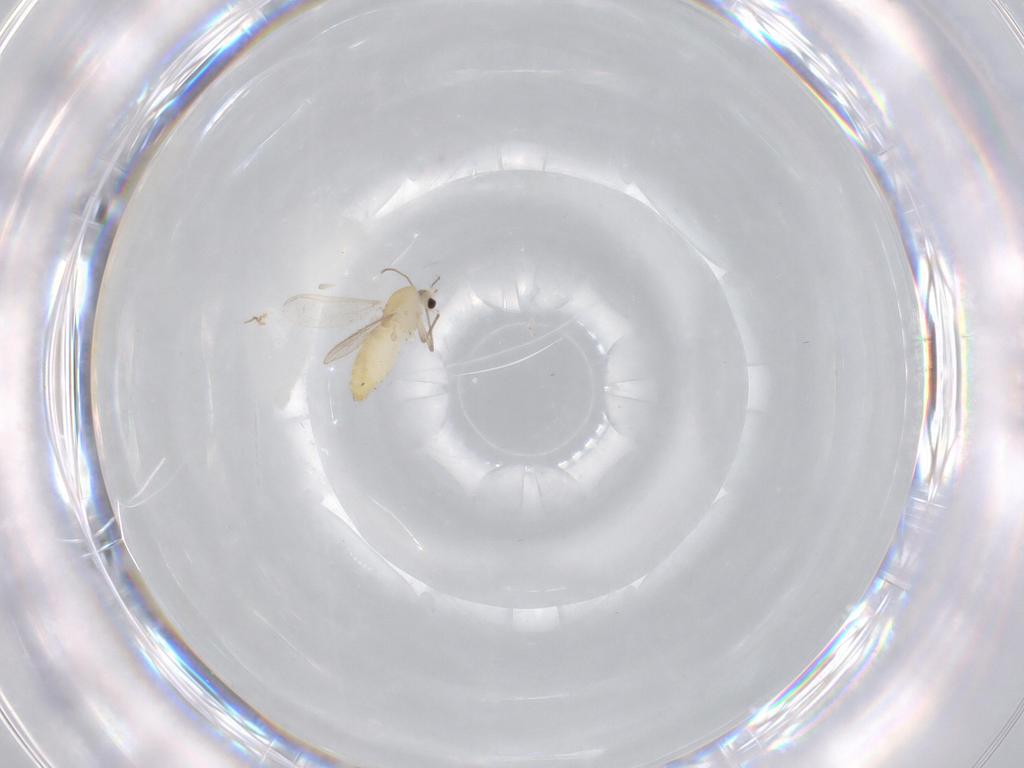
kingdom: Animalia
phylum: Arthropoda
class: Insecta
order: Diptera
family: Chironomidae
